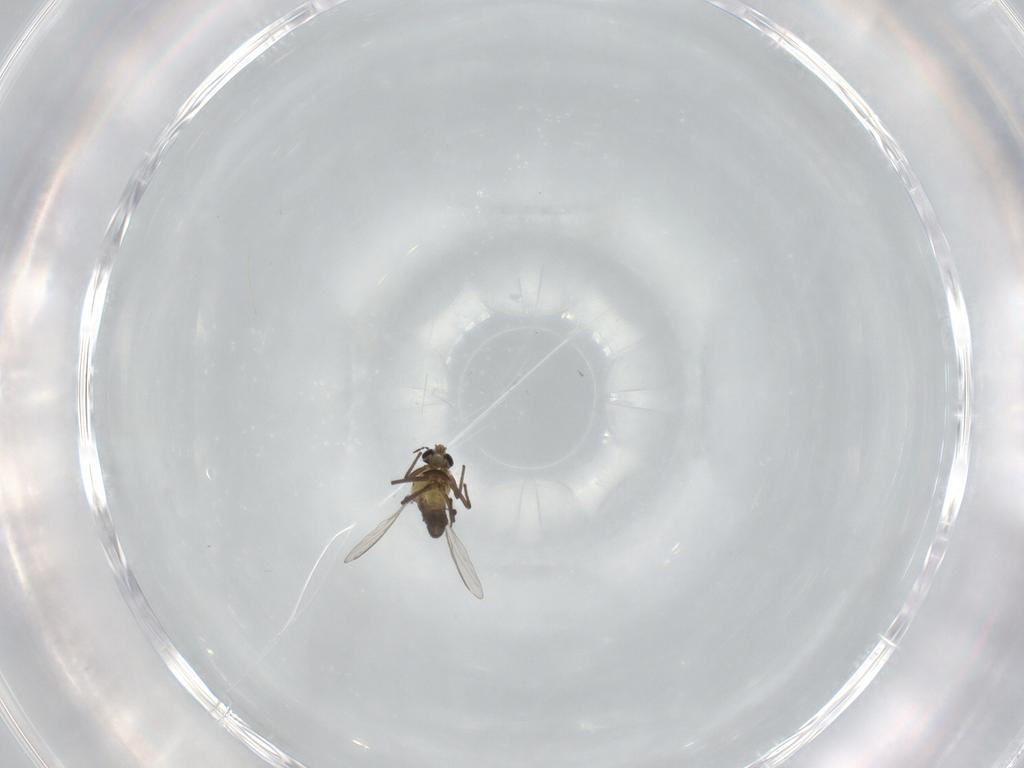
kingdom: Animalia
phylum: Arthropoda
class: Insecta
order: Diptera
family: Chironomidae
